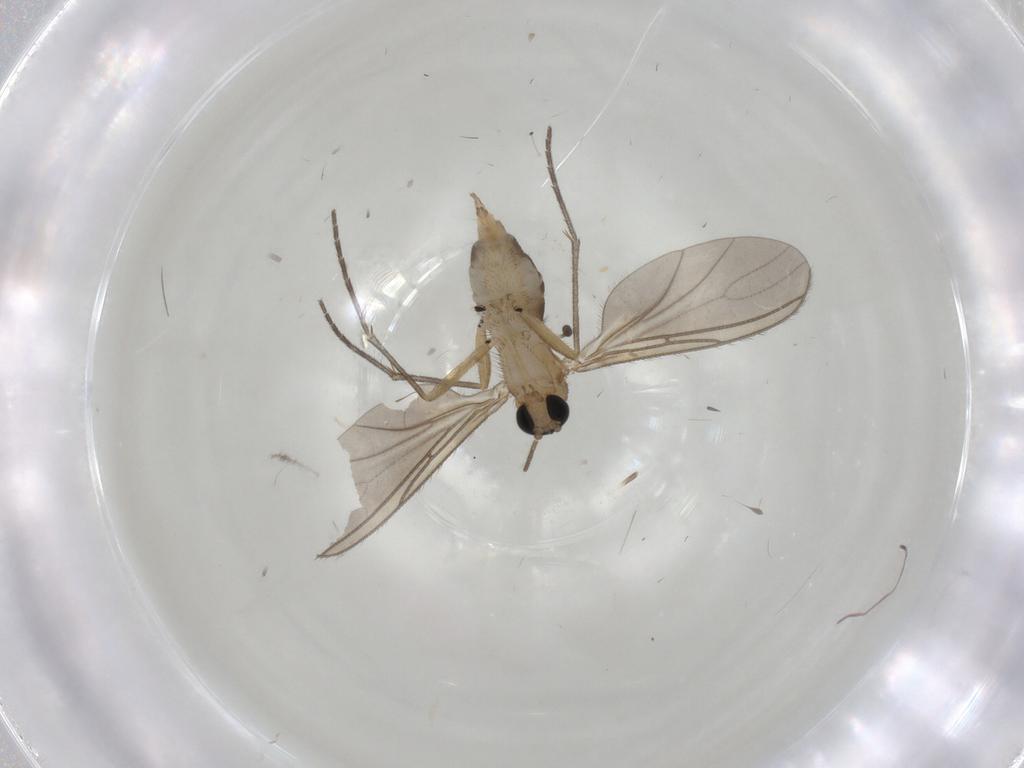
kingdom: Animalia
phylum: Arthropoda
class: Insecta
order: Diptera
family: Sciaridae
